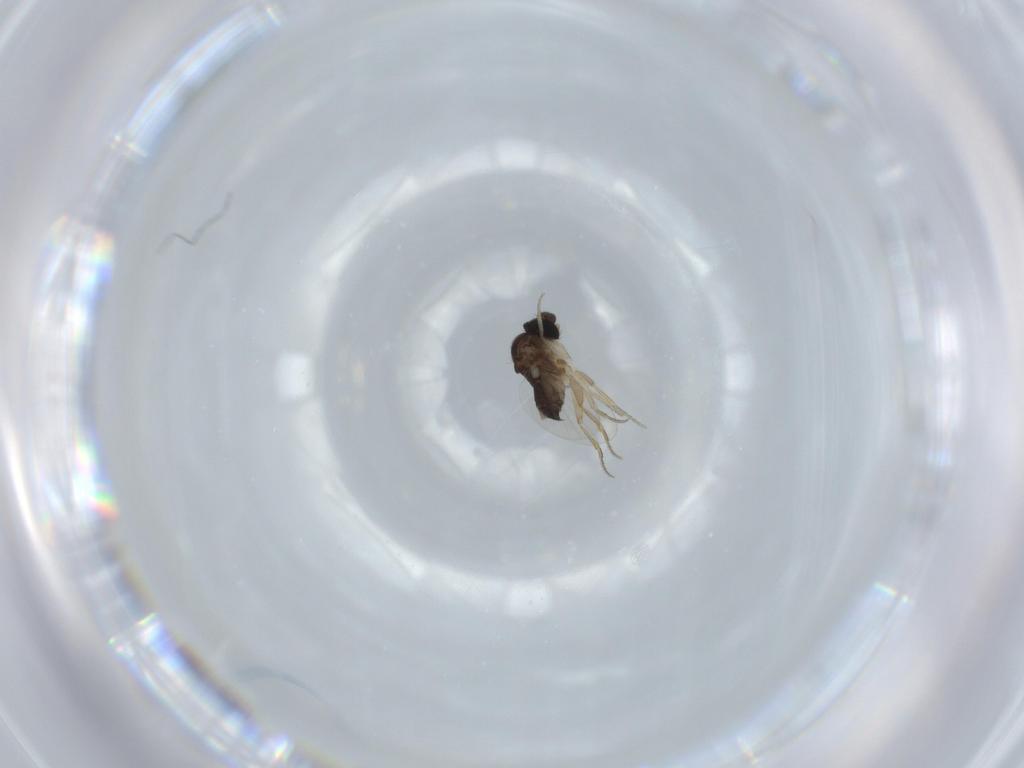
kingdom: Animalia
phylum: Arthropoda
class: Insecta
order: Diptera
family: Phoridae
